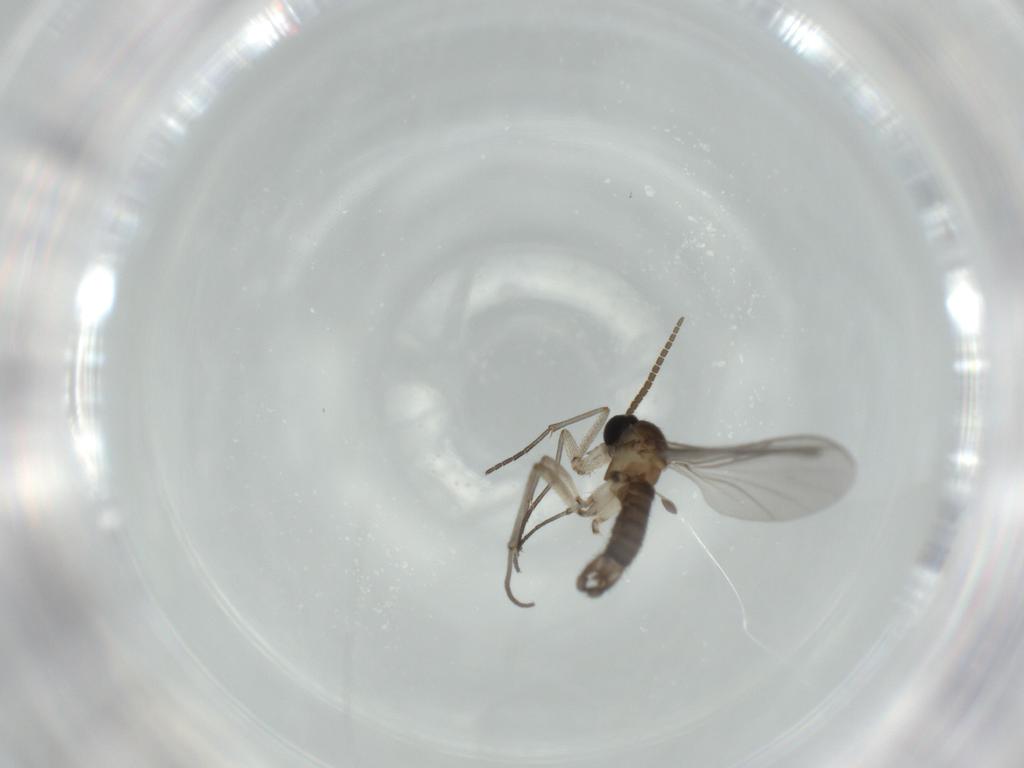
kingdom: Animalia
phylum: Arthropoda
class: Insecta
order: Diptera
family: Sciaridae
